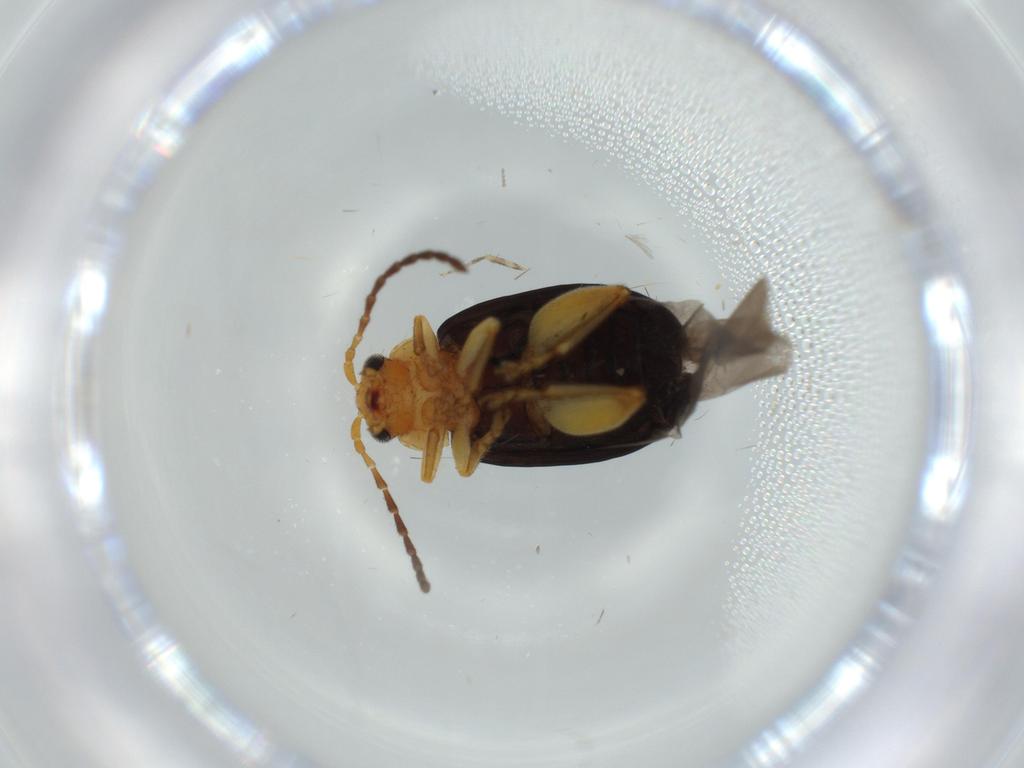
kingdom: Animalia
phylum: Arthropoda
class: Insecta
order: Coleoptera
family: Chrysomelidae
